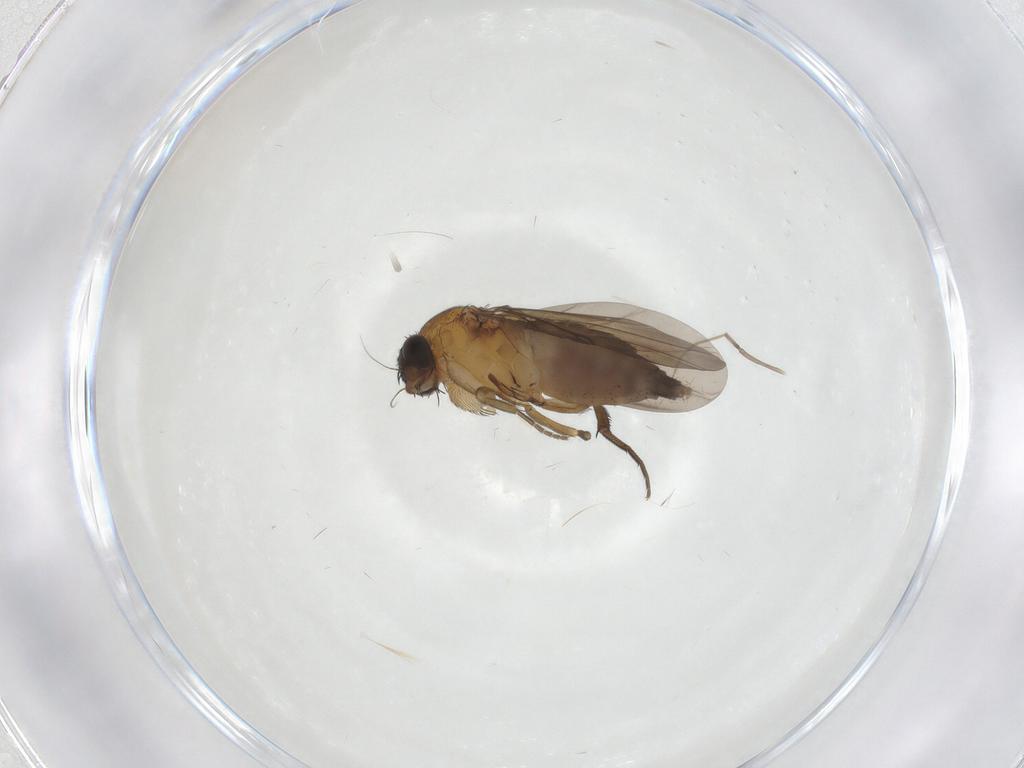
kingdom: Animalia
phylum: Arthropoda
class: Insecta
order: Diptera
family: Phoridae
